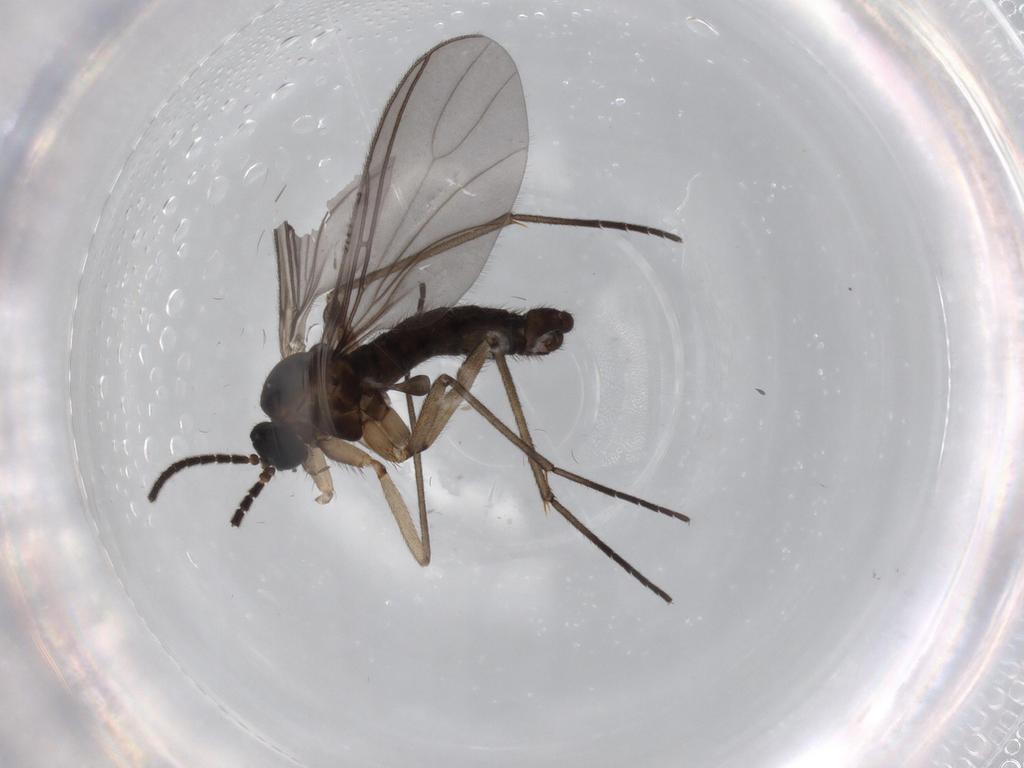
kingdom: Animalia
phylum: Arthropoda
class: Insecta
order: Diptera
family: Sciaridae
